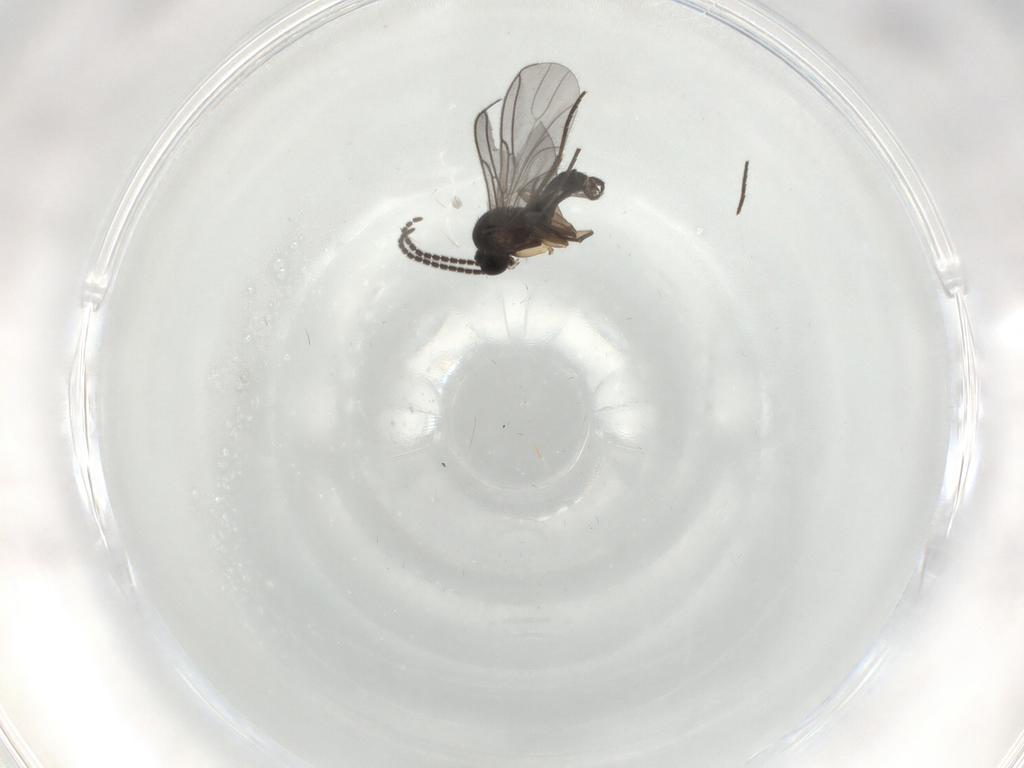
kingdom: Animalia
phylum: Arthropoda
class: Insecta
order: Diptera
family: Sciaridae
